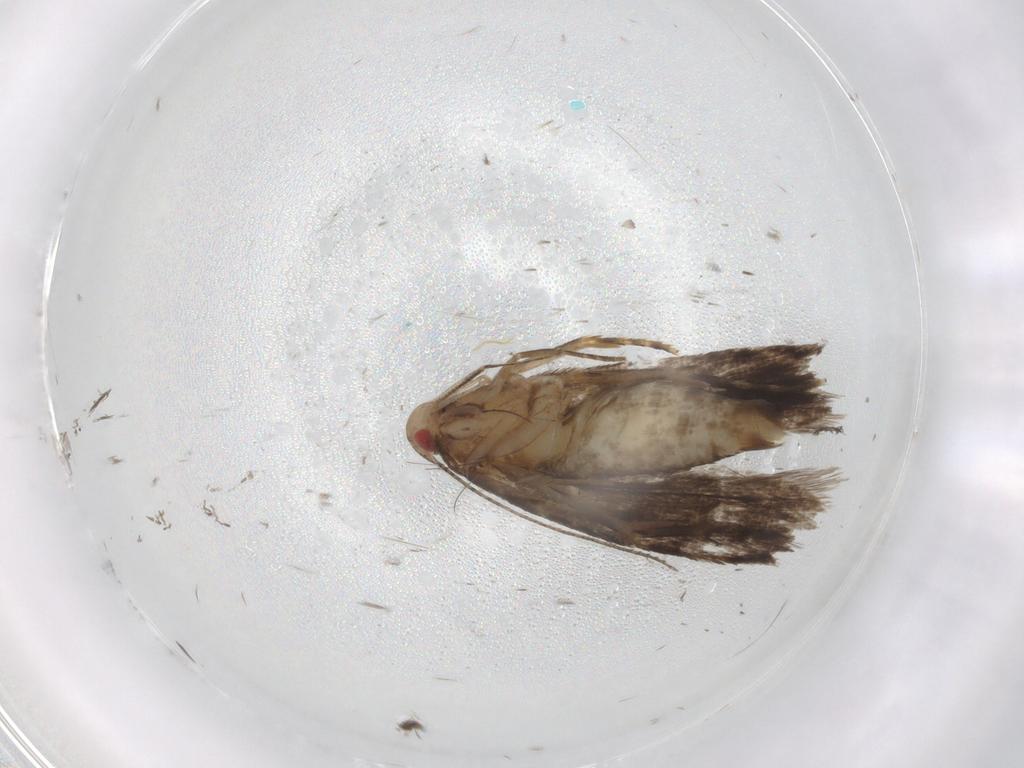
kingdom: Animalia
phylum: Arthropoda
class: Insecta
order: Lepidoptera
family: Gelechiidae
